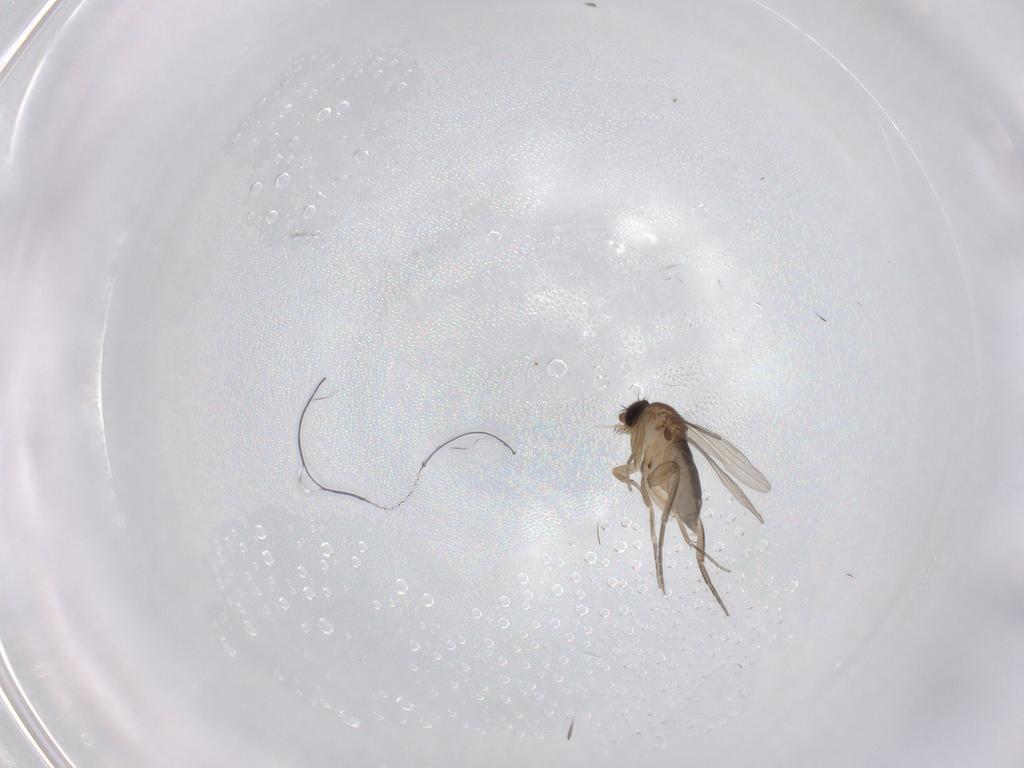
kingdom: Animalia
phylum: Arthropoda
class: Insecta
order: Diptera
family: Phoridae
